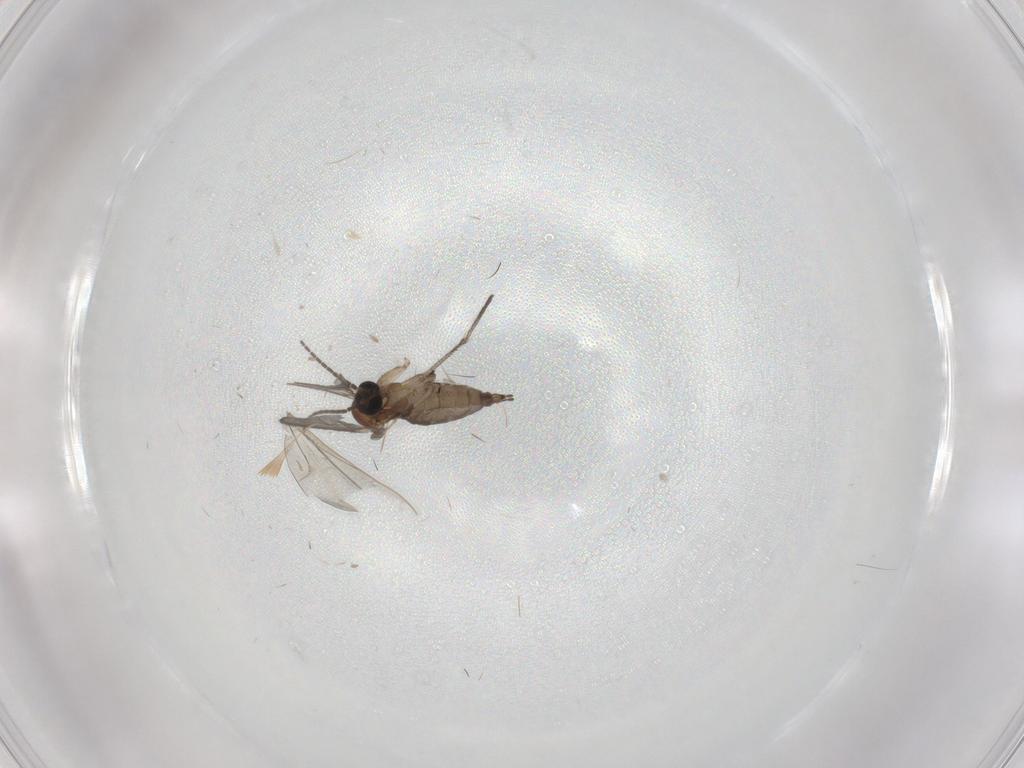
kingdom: Animalia
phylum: Arthropoda
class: Insecta
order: Diptera
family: Sciaridae
